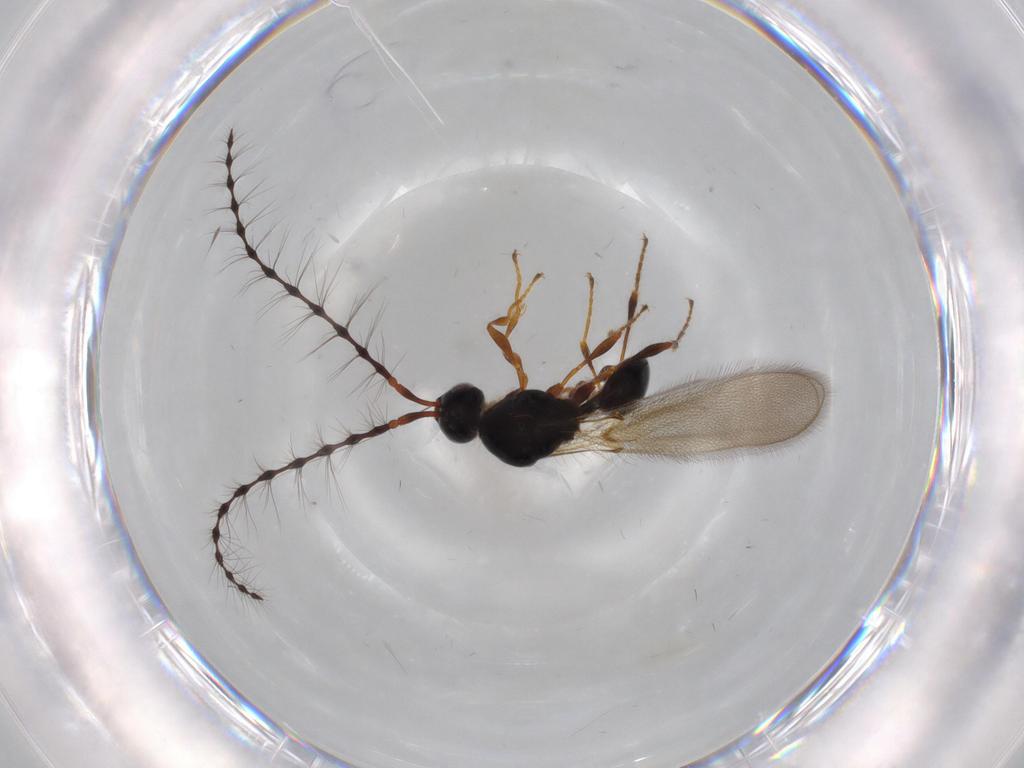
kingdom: Animalia
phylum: Arthropoda
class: Insecta
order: Hymenoptera
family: Diapriidae
